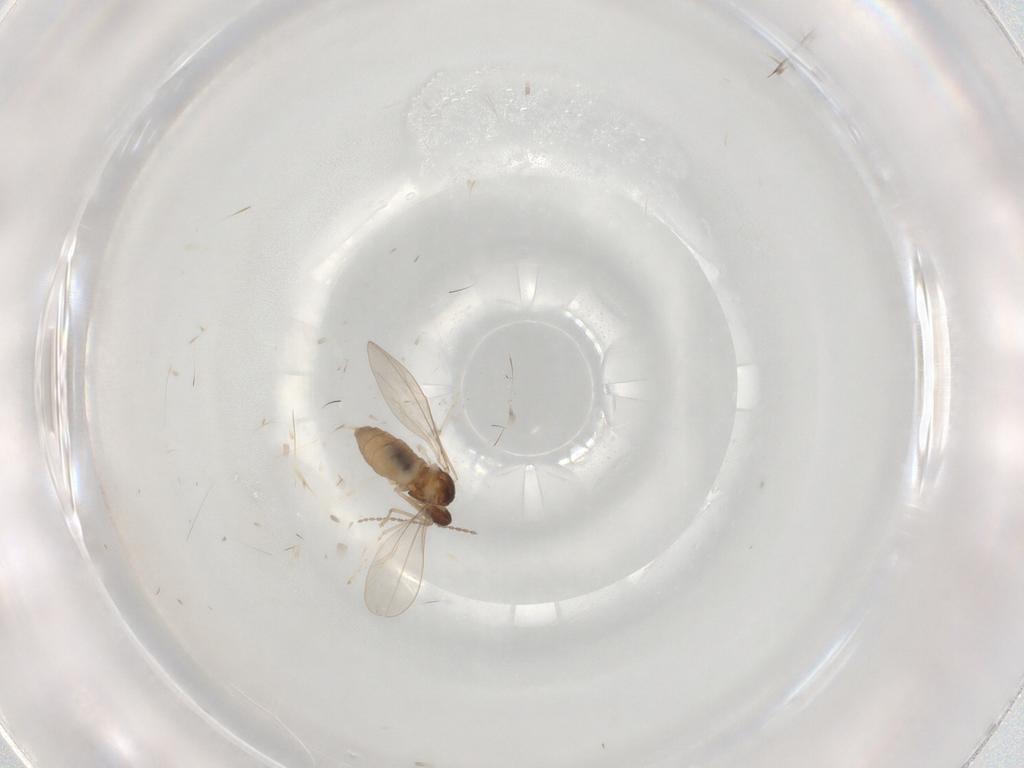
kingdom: Animalia
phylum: Arthropoda
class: Insecta
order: Diptera
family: Cecidomyiidae
